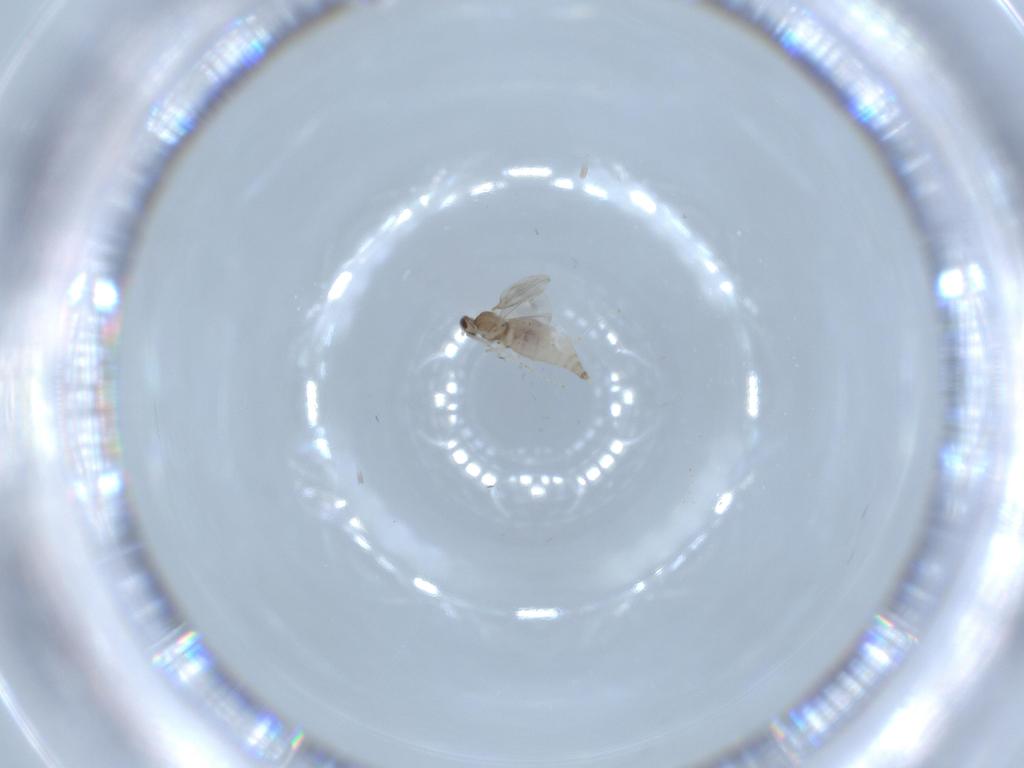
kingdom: Animalia
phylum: Arthropoda
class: Insecta
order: Diptera
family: Cecidomyiidae
